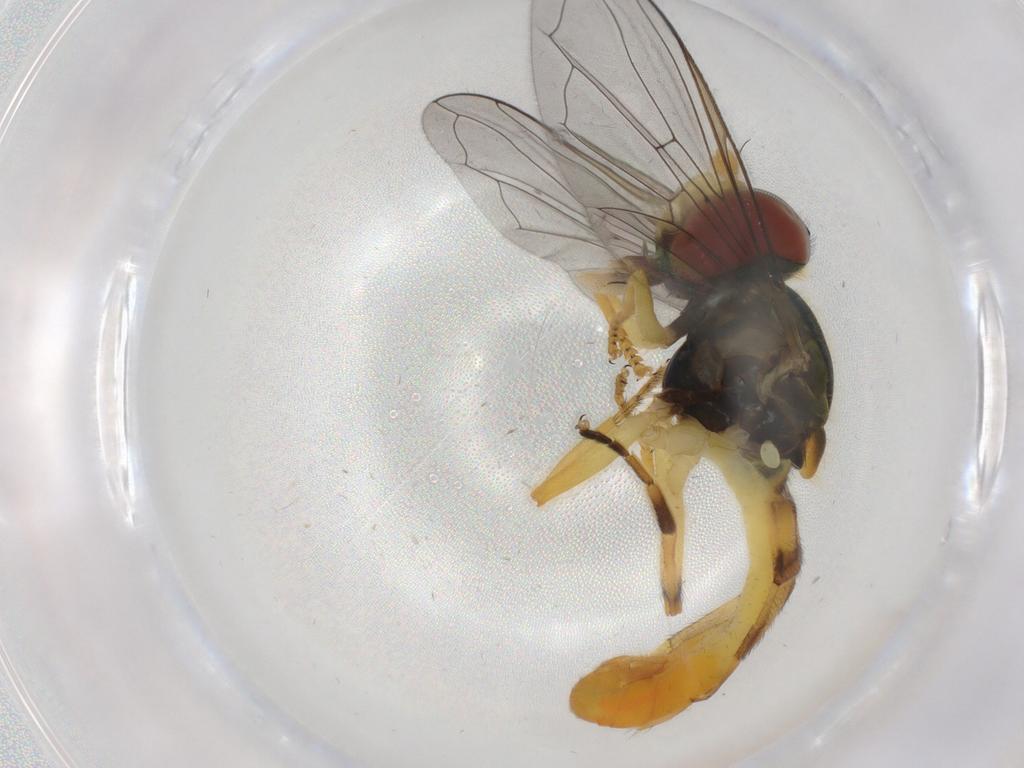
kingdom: Animalia
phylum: Arthropoda
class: Insecta
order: Diptera
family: Syrphidae
